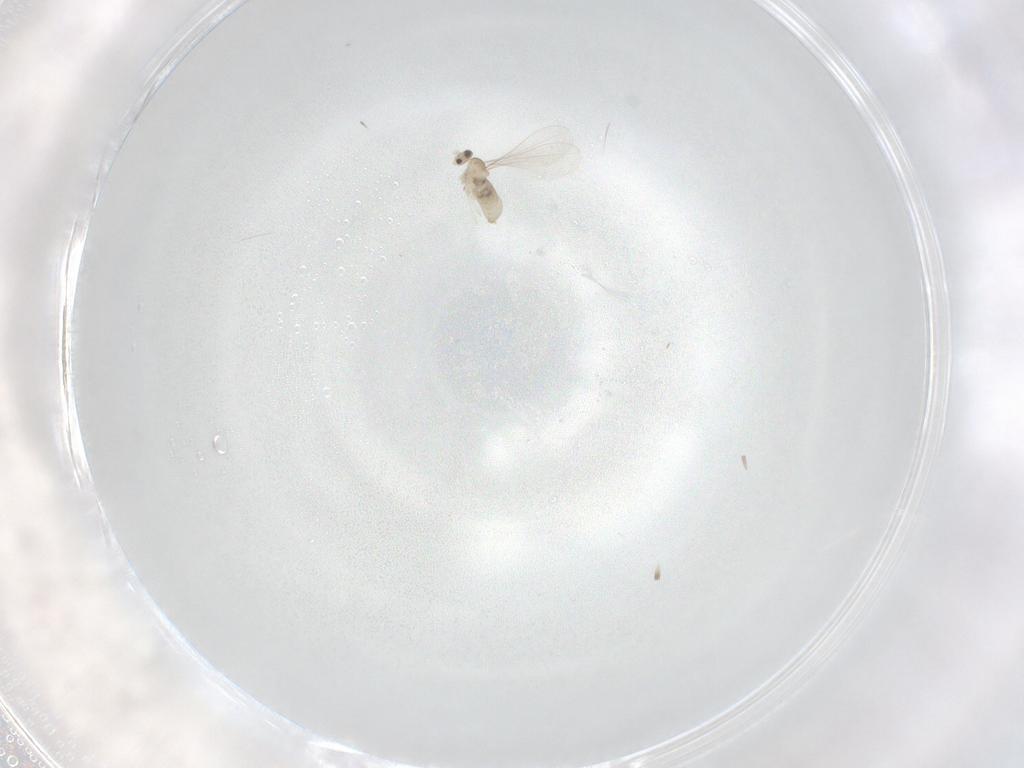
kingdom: Animalia
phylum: Arthropoda
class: Insecta
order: Diptera
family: Cecidomyiidae
